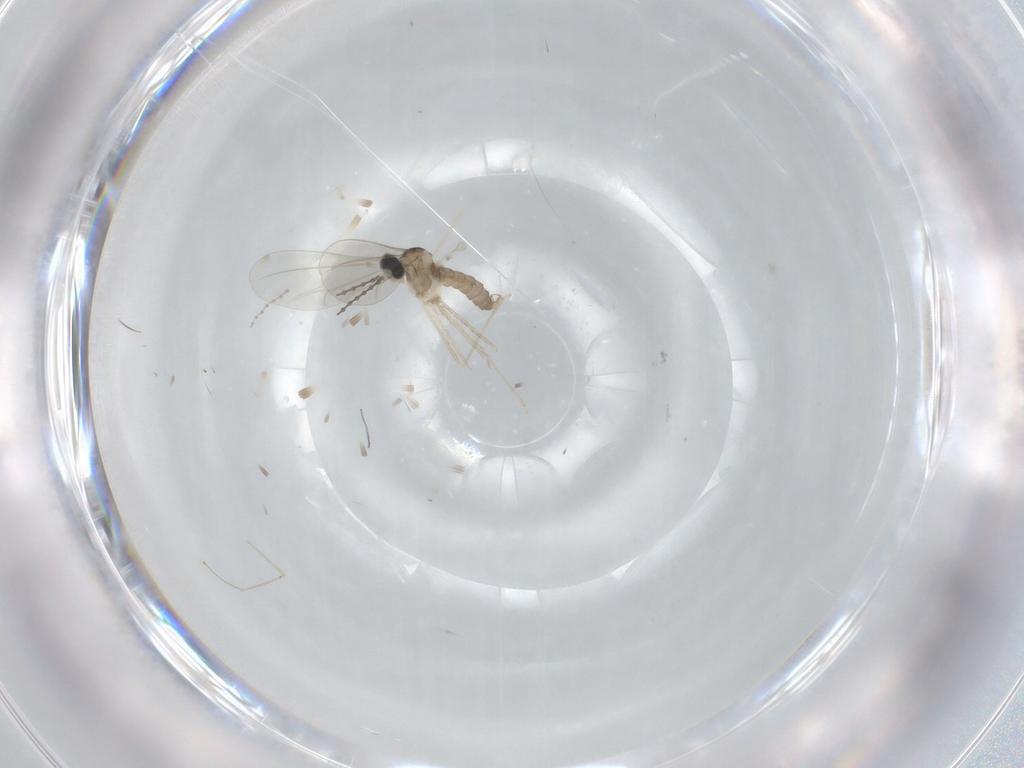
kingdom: Animalia
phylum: Arthropoda
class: Insecta
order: Diptera
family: Cecidomyiidae
